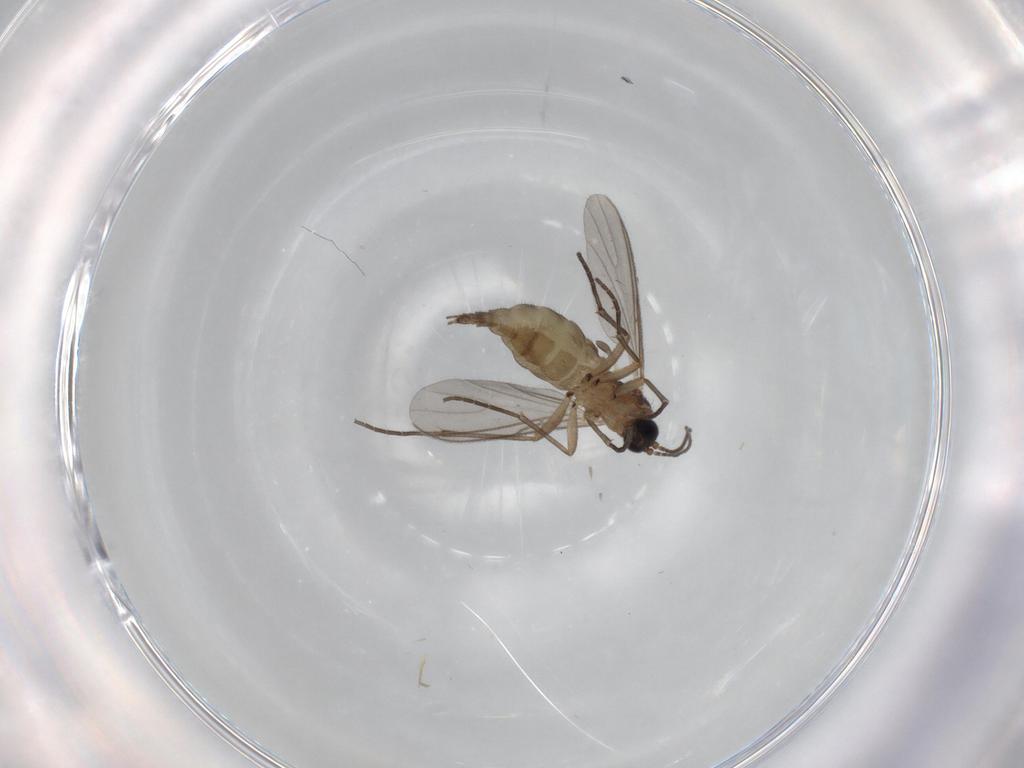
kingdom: Animalia
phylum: Arthropoda
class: Insecta
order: Diptera
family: Sciaridae
